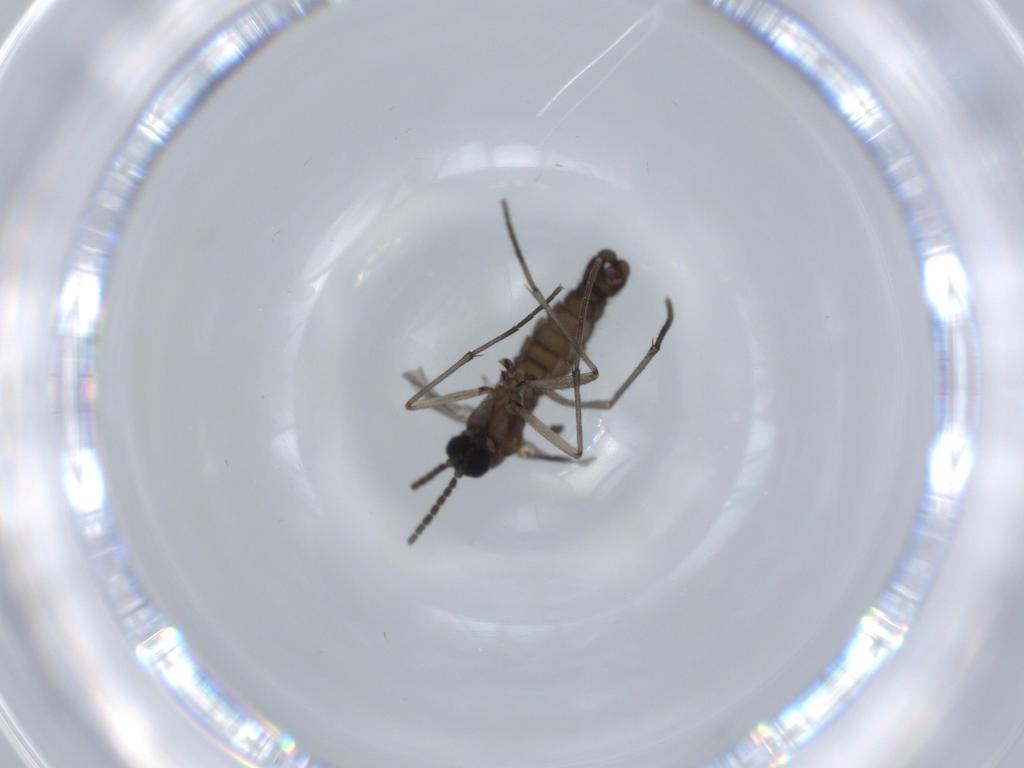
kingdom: Animalia
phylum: Arthropoda
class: Insecta
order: Diptera
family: Sciaridae
